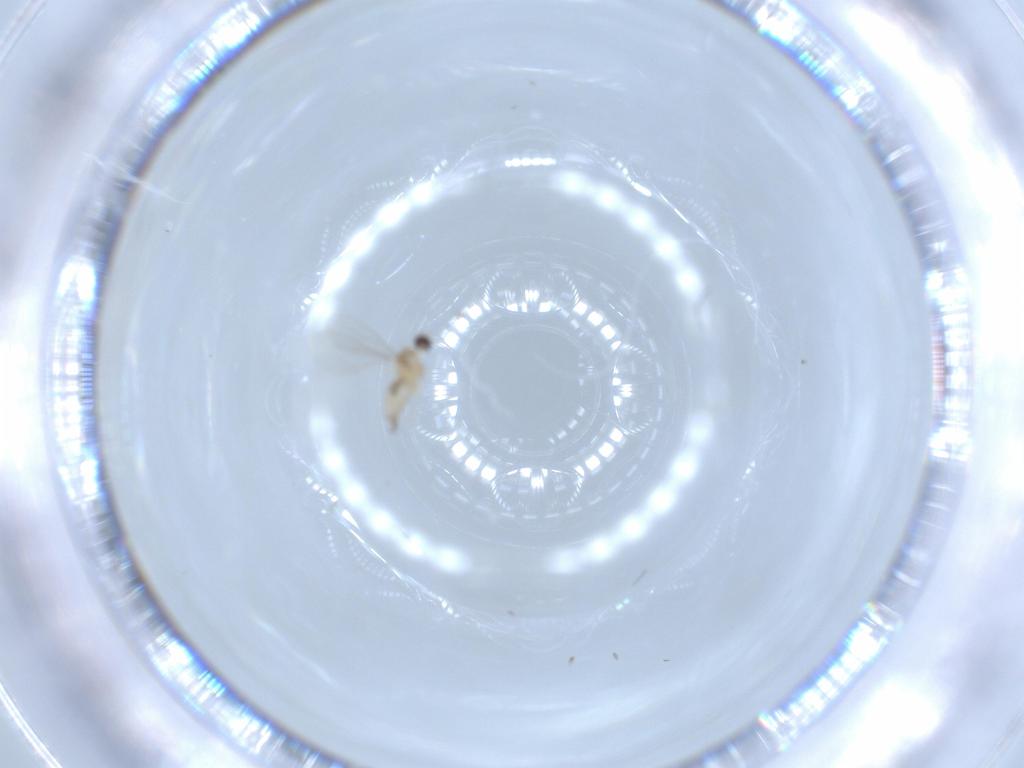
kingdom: Animalia
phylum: Arthropoda
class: Insecta
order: Diptera
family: Cecidomyiidae
